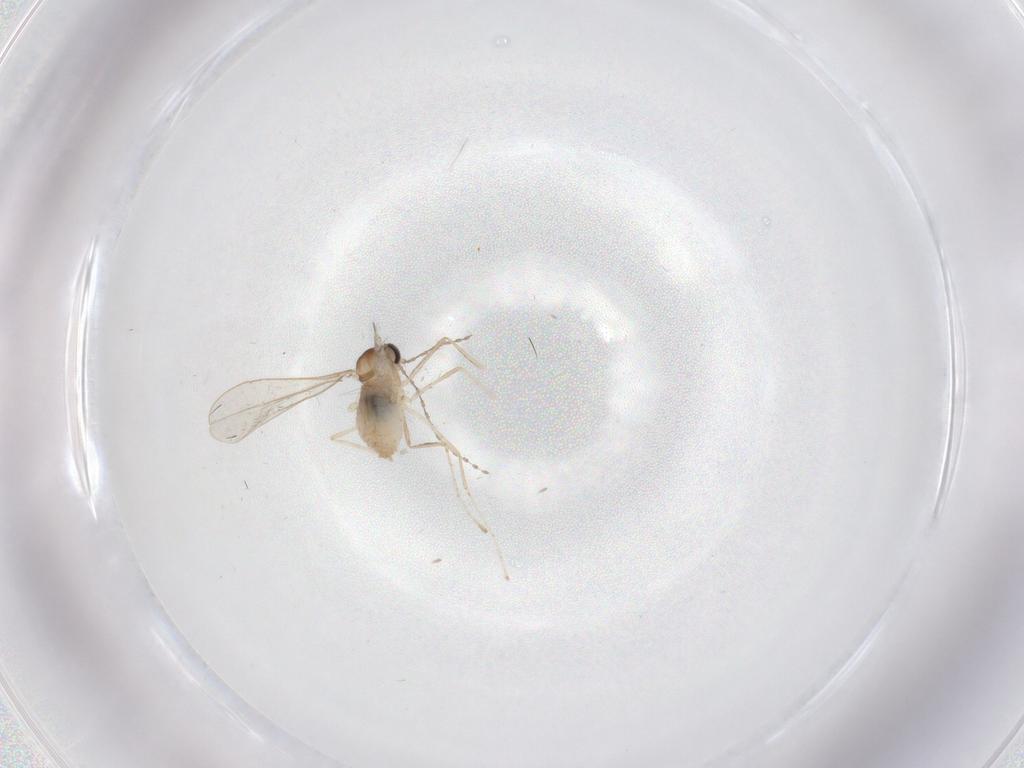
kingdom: Animalia
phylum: Arthropoda
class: Insecta
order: Diptera
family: Cecidomyiidae
